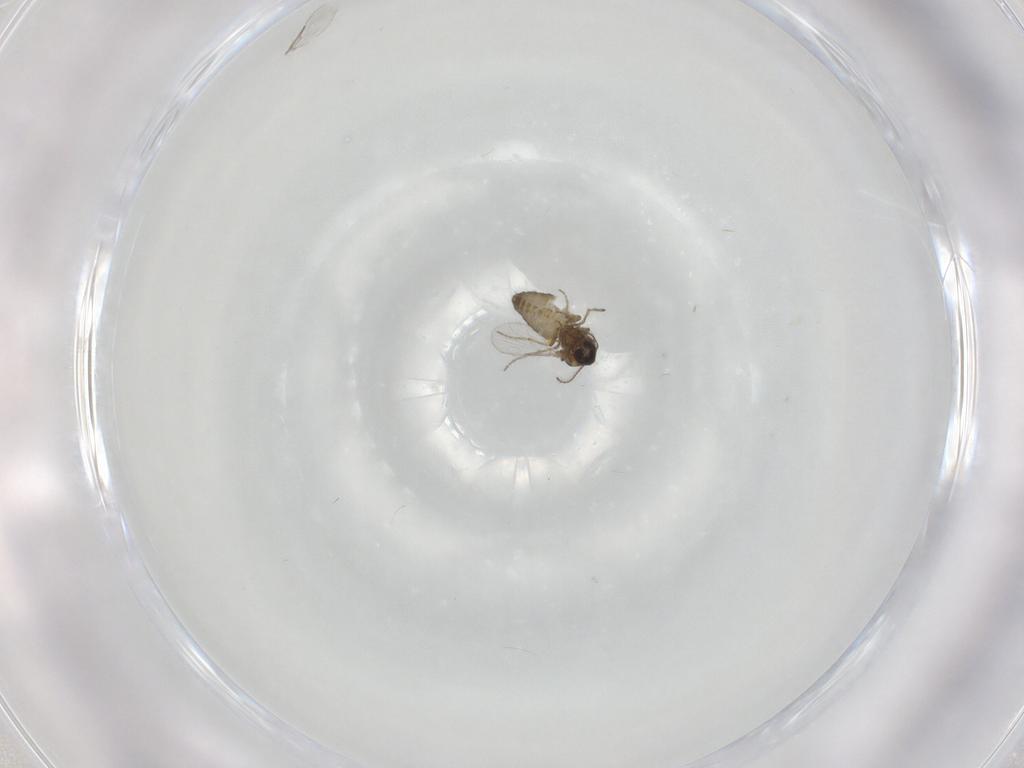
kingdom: Animalia
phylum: Arthropoda
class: Insecta
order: Diptera
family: Ceratopogonidae
